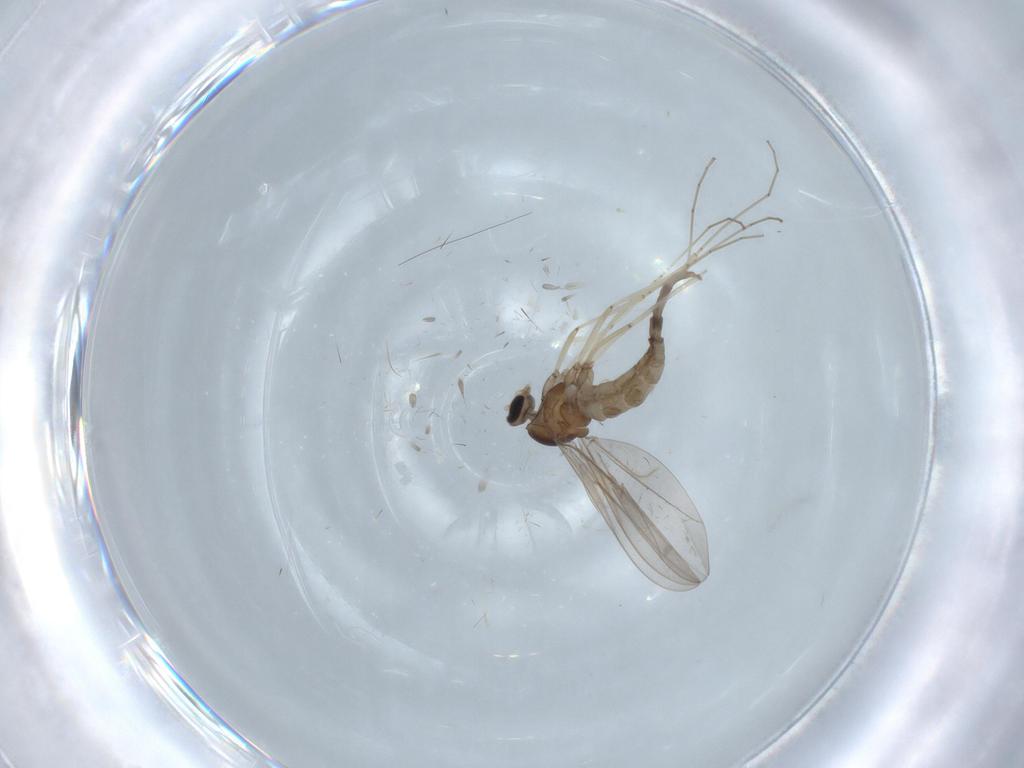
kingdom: Animalia
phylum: Arthropoda
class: Insecta
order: Diptera
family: Cecidomyiidae
